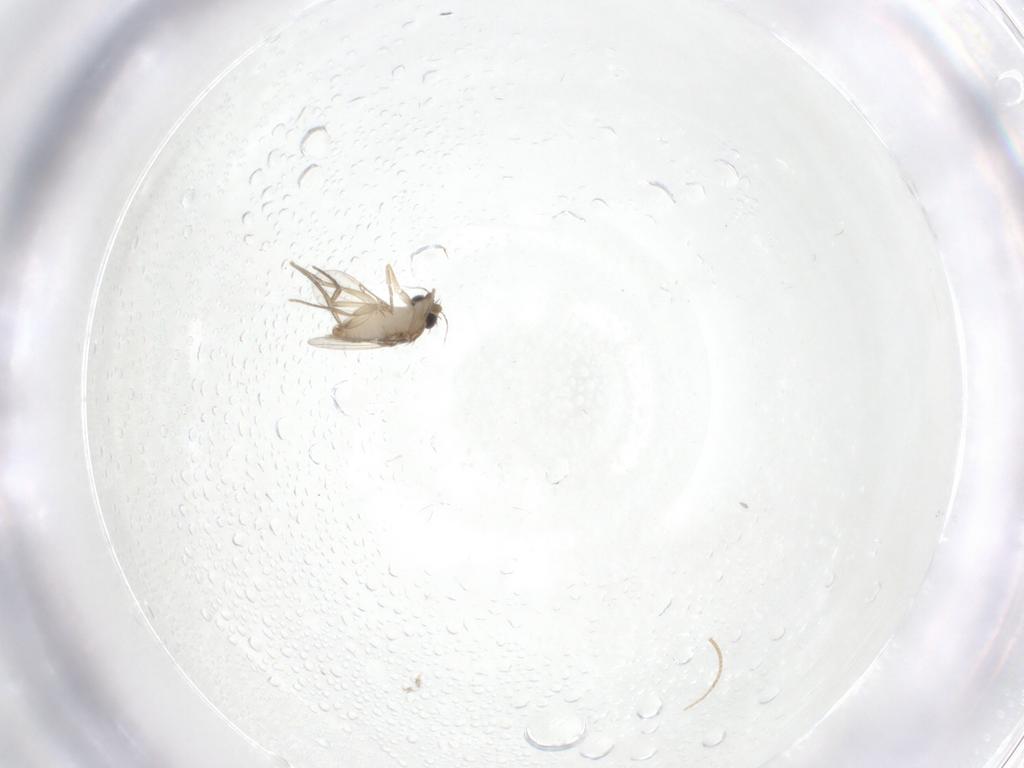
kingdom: Animalia
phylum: Arthropoda
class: Insecta
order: Diptera
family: Phoridae
